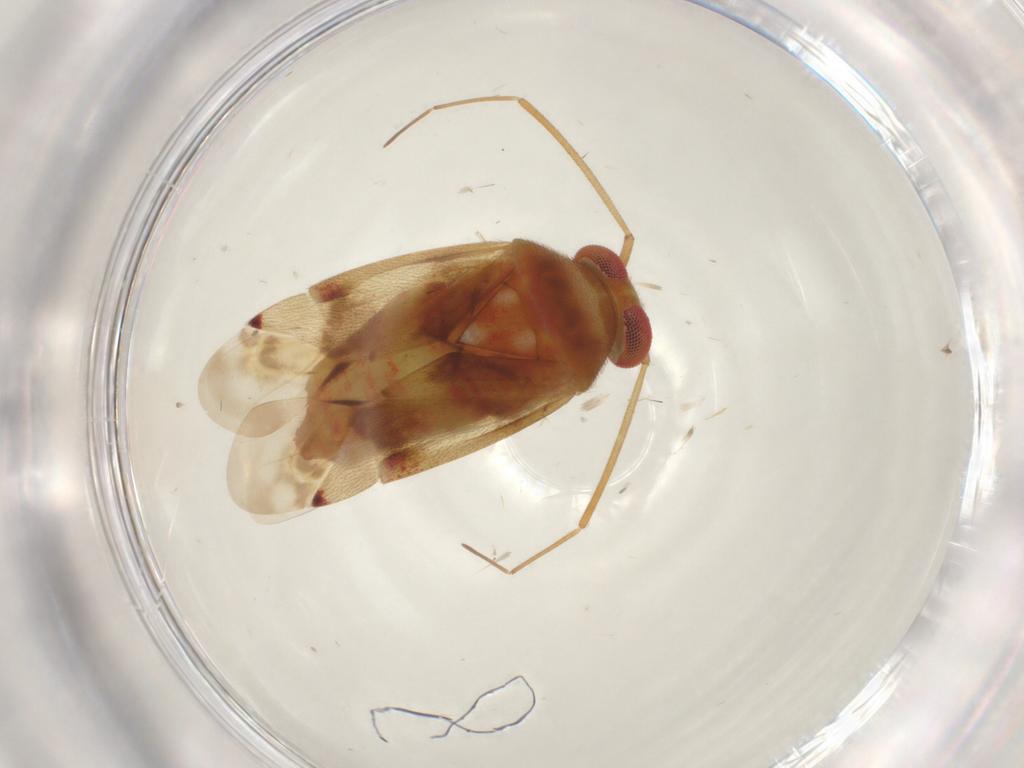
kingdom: Animalia
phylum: Arthropoda
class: Insecta
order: Hemiptera
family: Miridae
